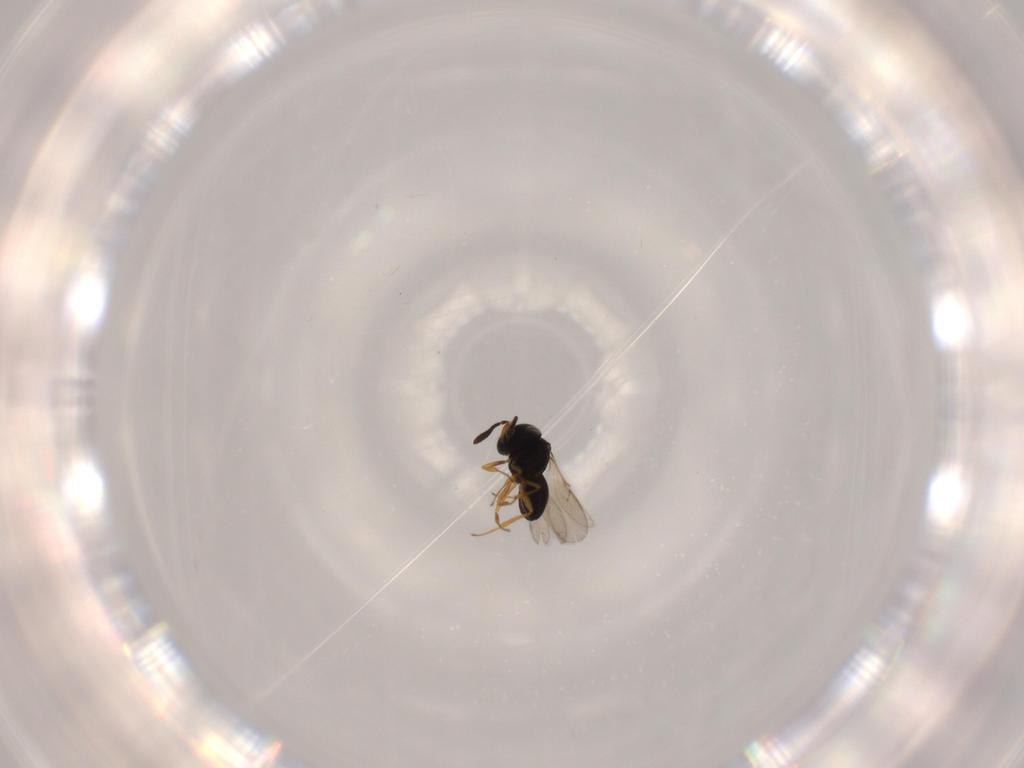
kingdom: Animalia
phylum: Arthropoda
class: Insecta
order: Hymenoptera
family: Scelionidae
